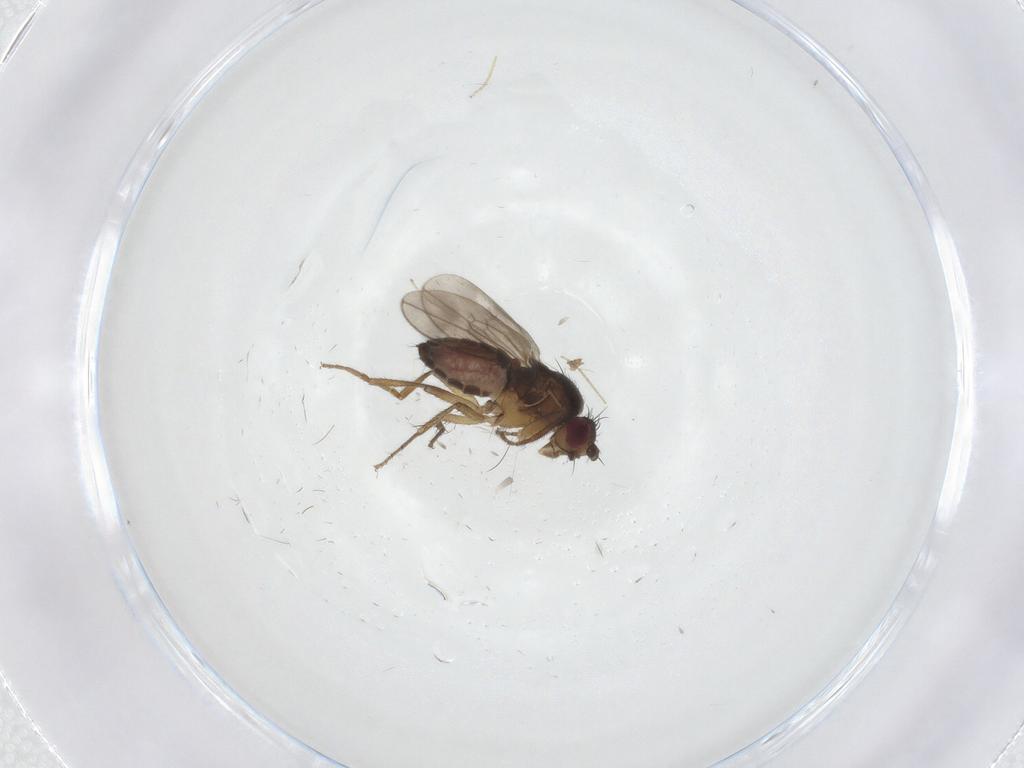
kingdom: Animalia
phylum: Arthropoda
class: Insecta
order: Diptera
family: Sphaeroceridae
